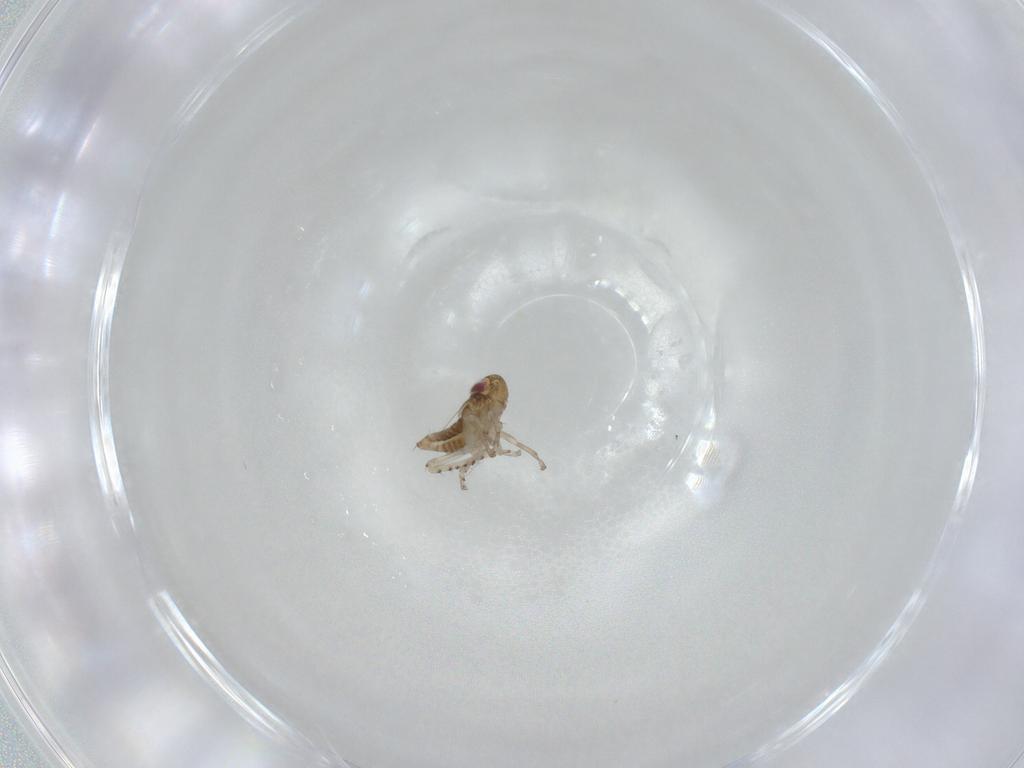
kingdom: Animalia
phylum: Arthropoda
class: Insecta
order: Hemiptera
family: Cicadellidae
